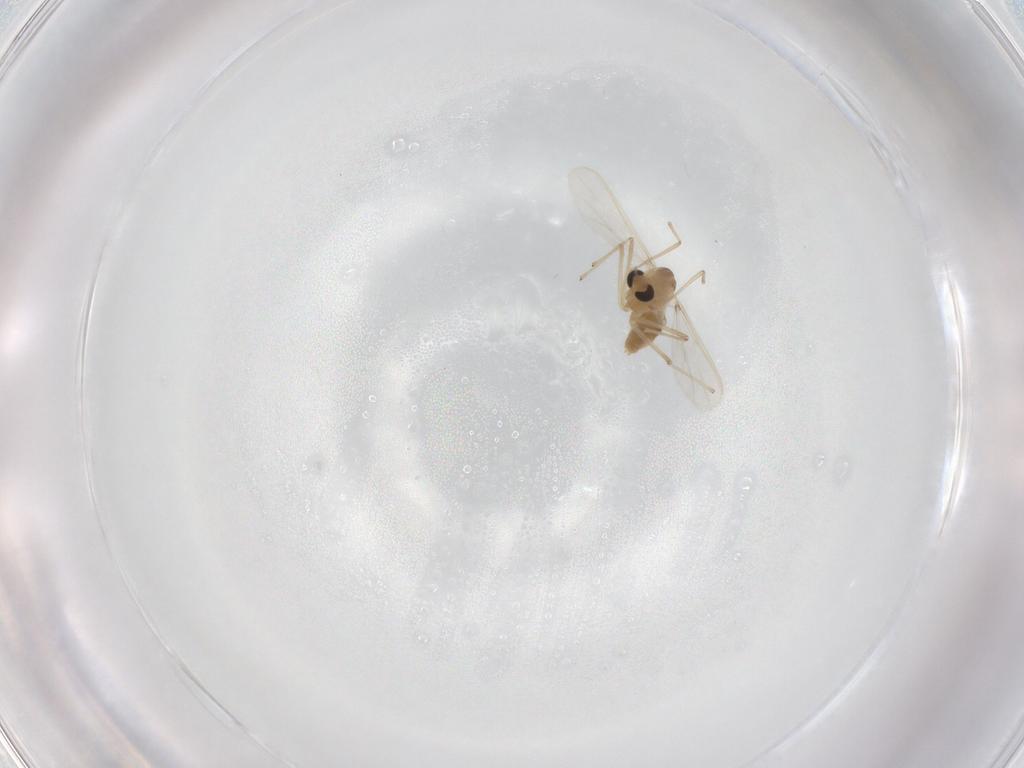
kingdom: Animalia
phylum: Arthropoda
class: Insecta
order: Diptera
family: Chironomidae
